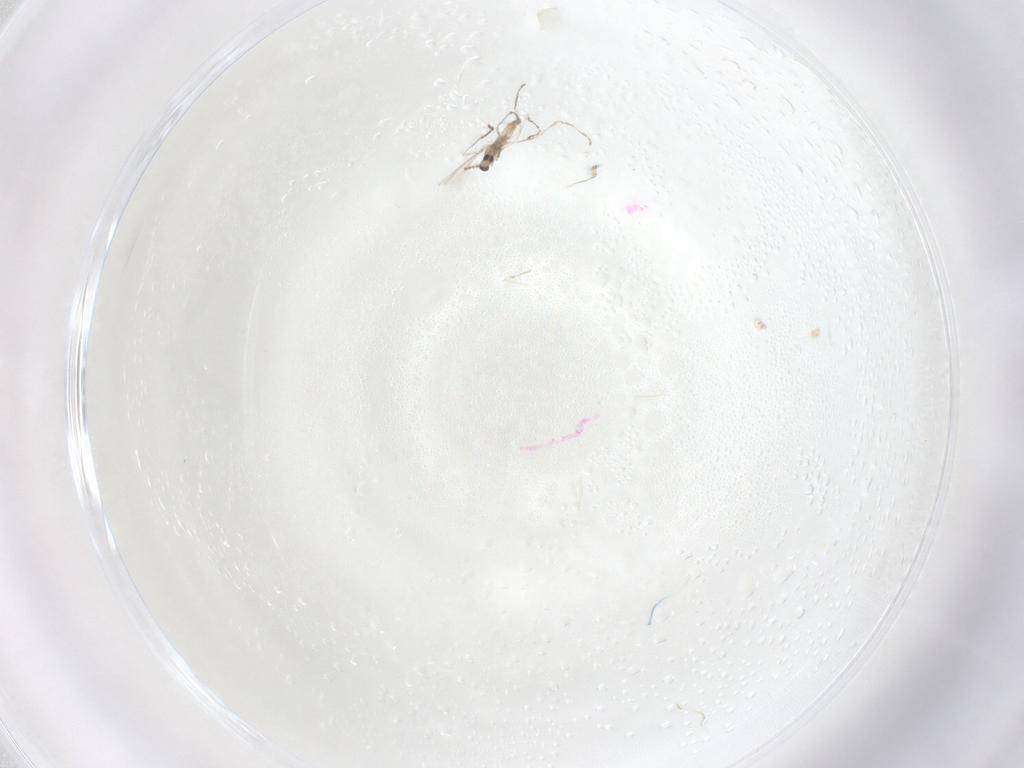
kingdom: Animalia
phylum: Arthropoda
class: Insecta
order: Diptera
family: Cecidomyiidae
